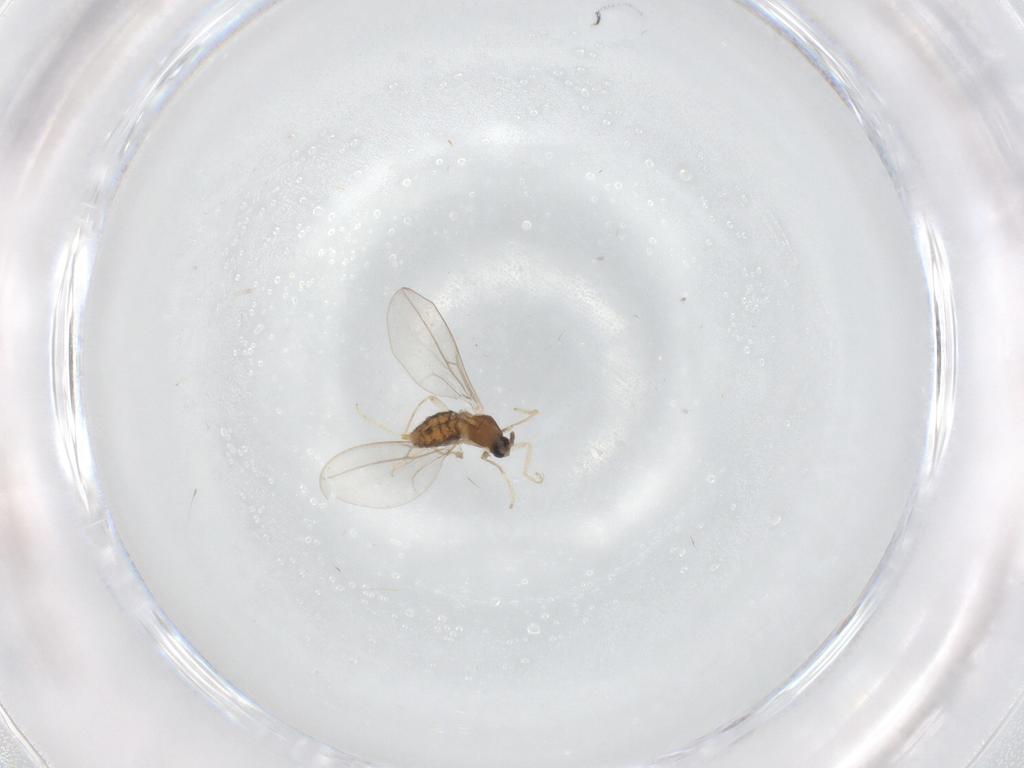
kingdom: Animalia
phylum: Arthropoda
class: Insecta
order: Diptera
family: Cecidomyiidae
